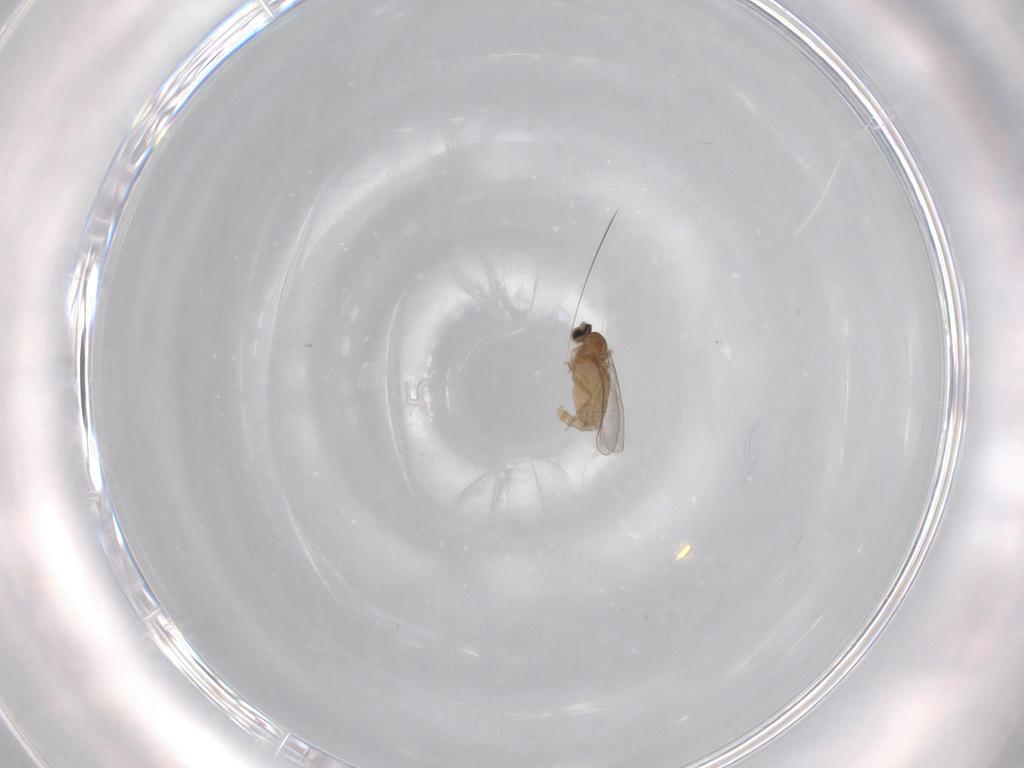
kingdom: Animalia
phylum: Arthropoda
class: Insecta
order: Diptera
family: Cecidomyiidae
